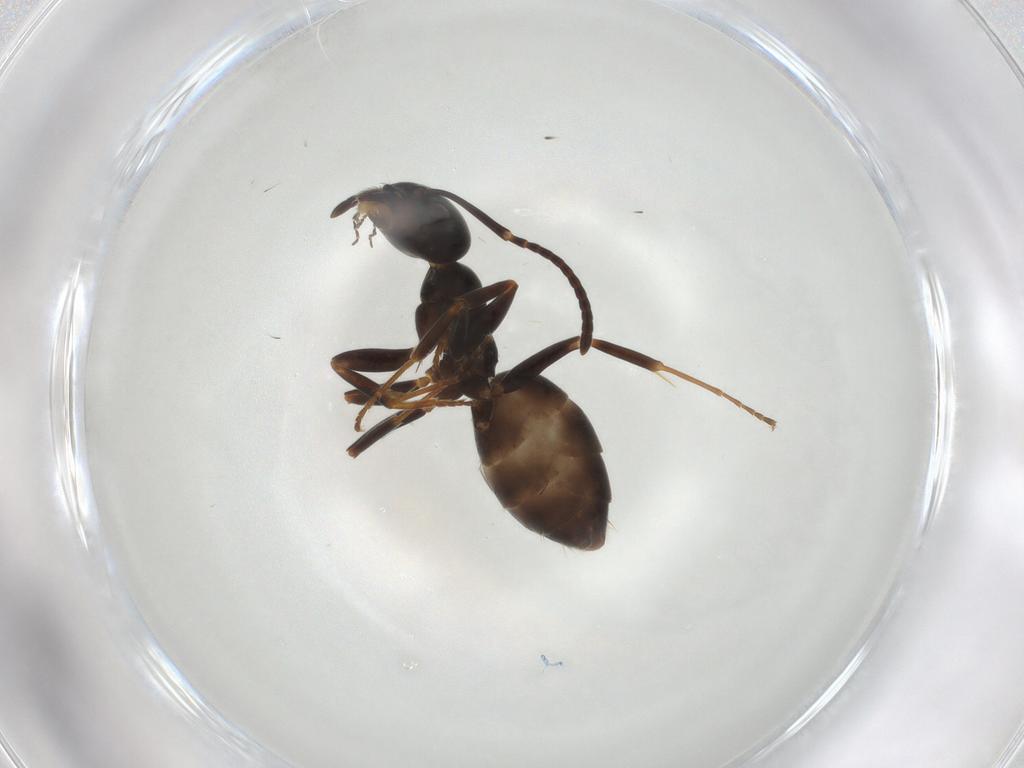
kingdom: Animalia
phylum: Arthropoda
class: Insecta
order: Hymenoptera
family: Formicidae
